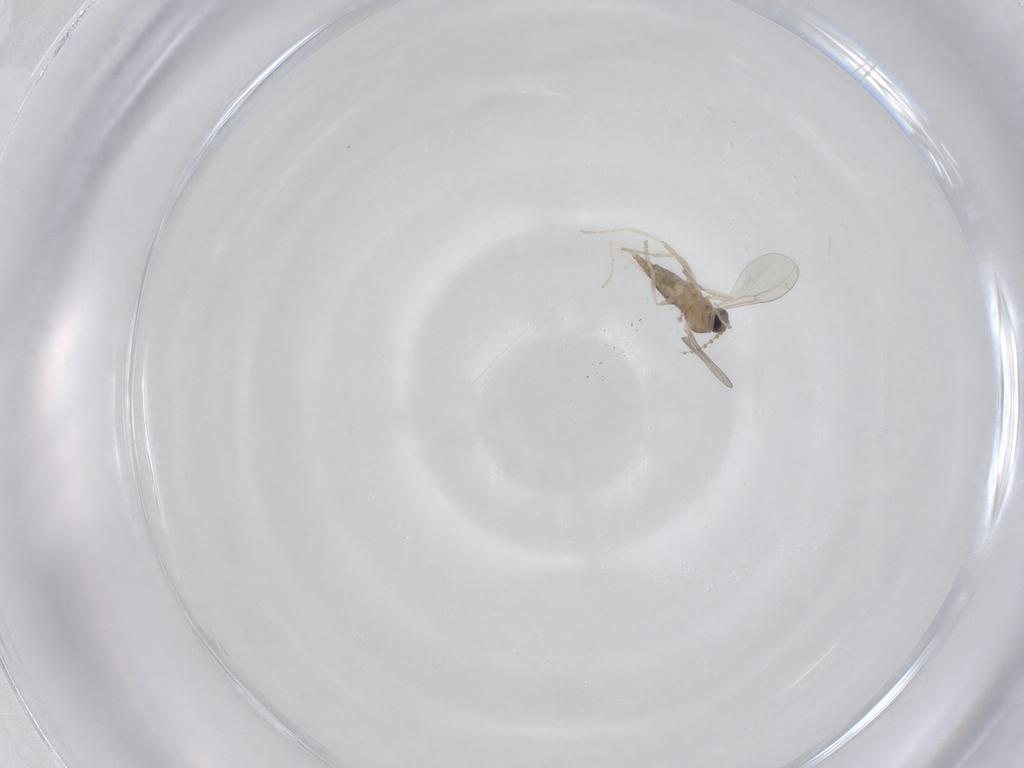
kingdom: Animalia
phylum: Arthropoda
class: Insecta
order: Diptera
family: Cecidomyiidae
